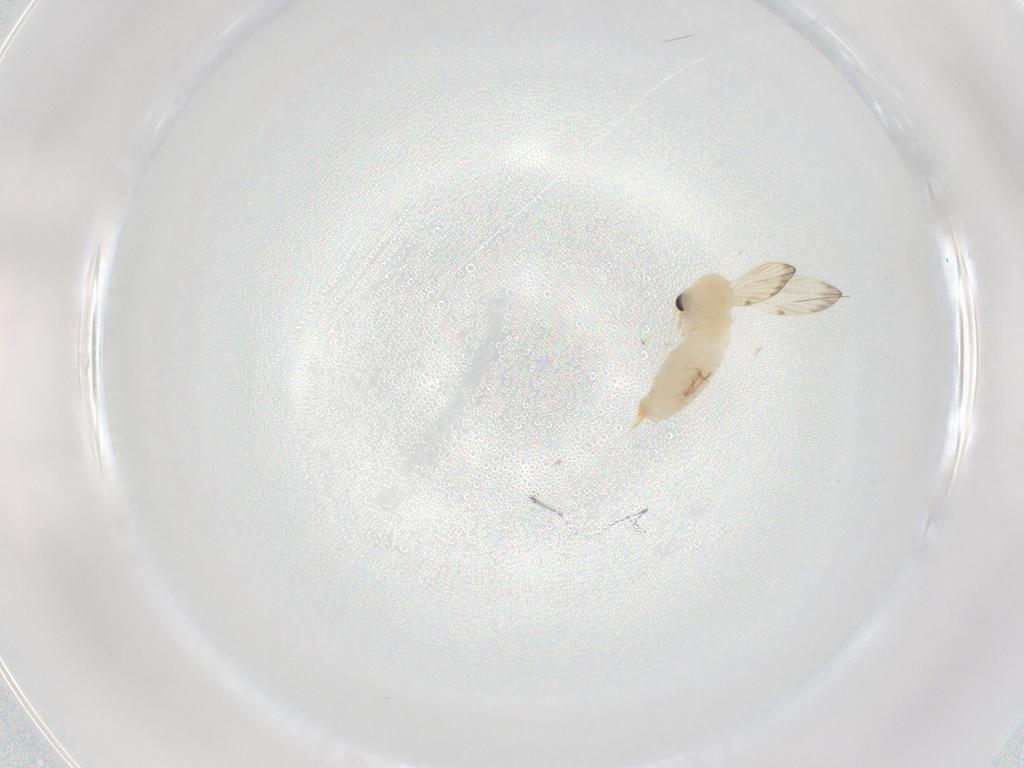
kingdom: Animalia
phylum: Arthropoda
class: Insecta
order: Diptera
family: Psychodidae
